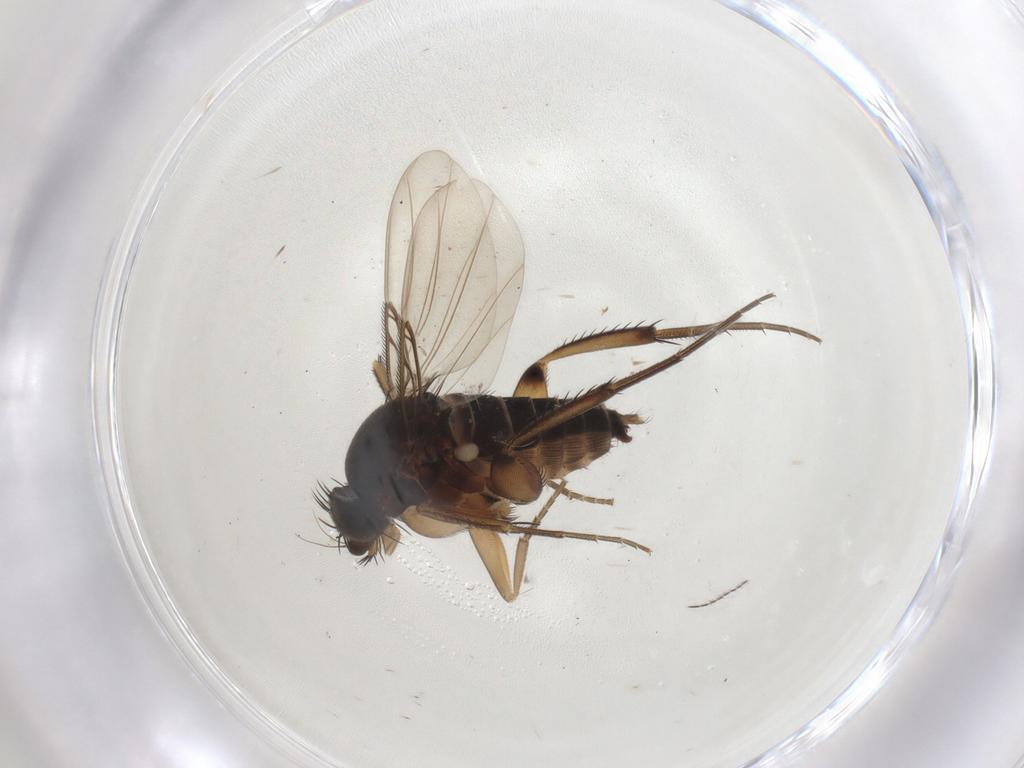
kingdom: Animalia
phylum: Arthropoda
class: Insecta
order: Diptera
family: Phoridae
